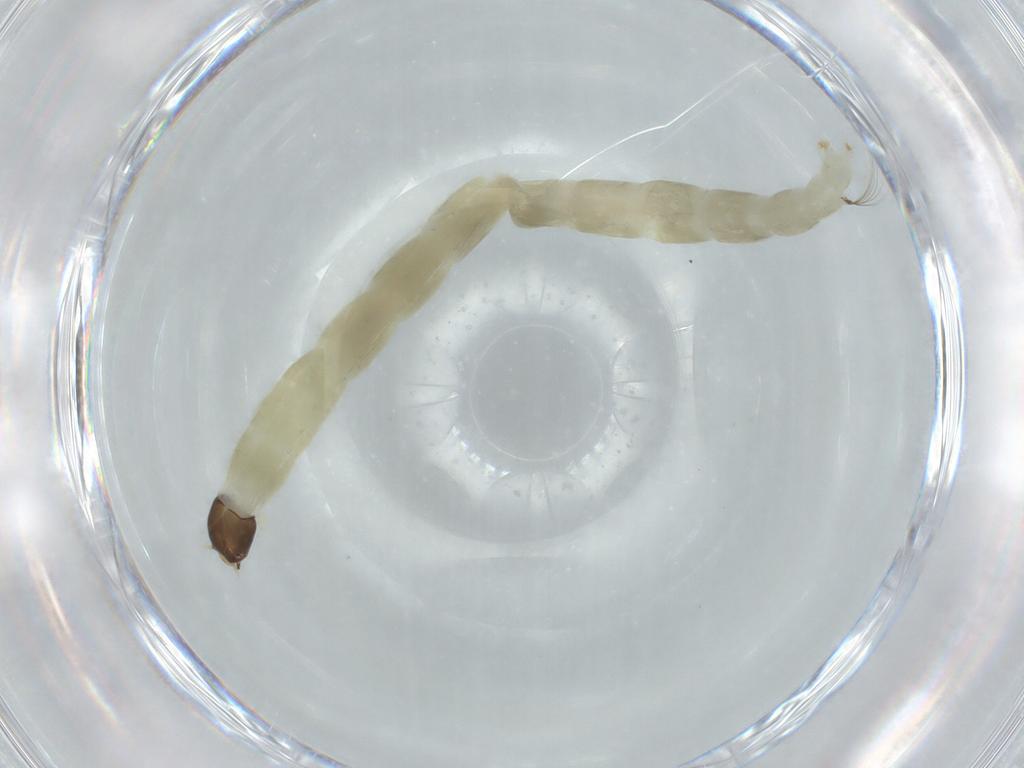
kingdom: Animalia
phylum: Arthropoda
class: Insecta
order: Diptera
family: Chironomidae
